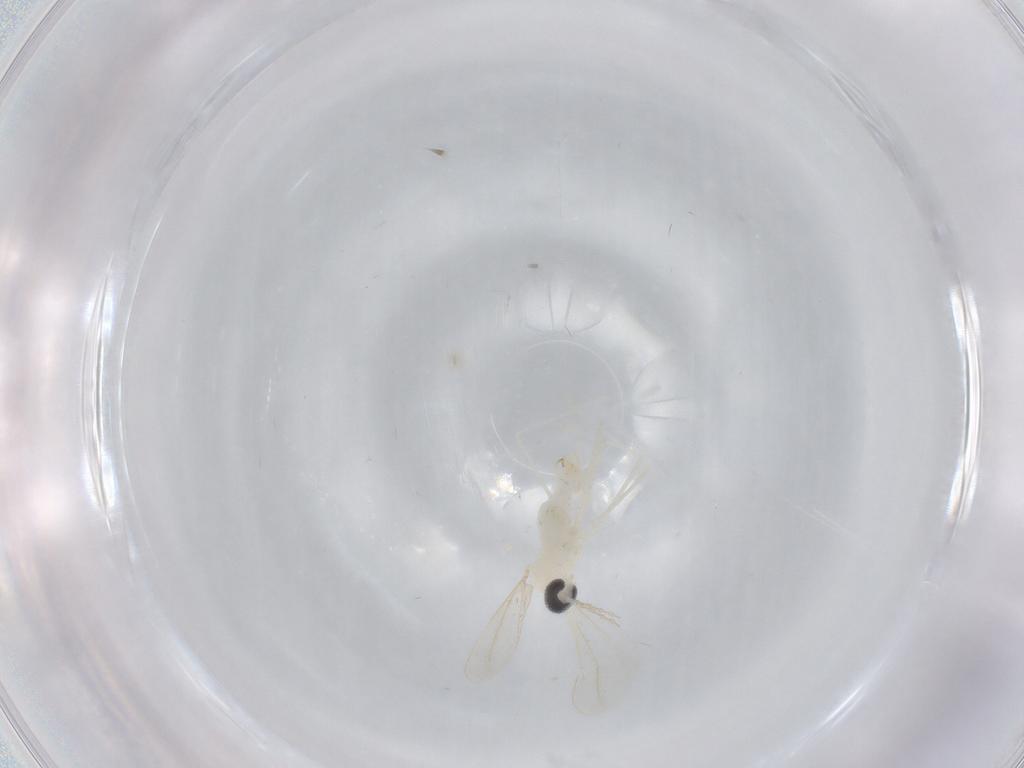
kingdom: Animalia
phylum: Arthropoda
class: Insecta
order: Diptera
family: Cecidomyiidae
